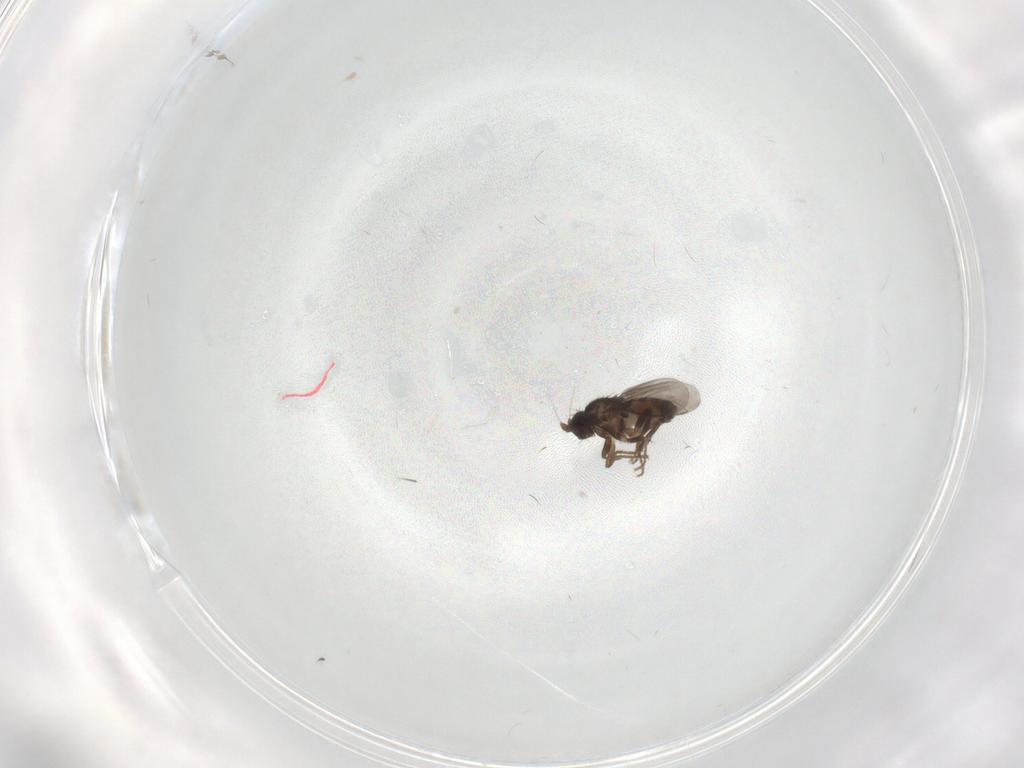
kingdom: Animalia
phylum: Arthropoda
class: Insecta
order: Diptera
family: Sphaeroceridae
